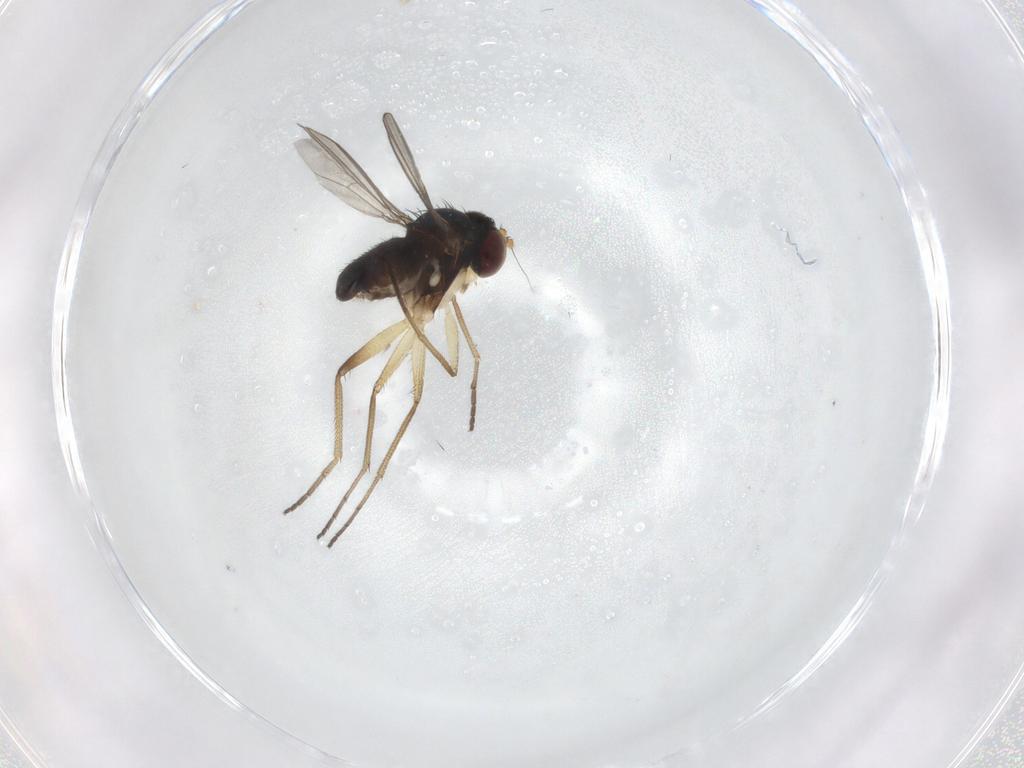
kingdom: Animalia
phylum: Arthropoda
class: Insecta
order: Diptera
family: Dolichopodidae
